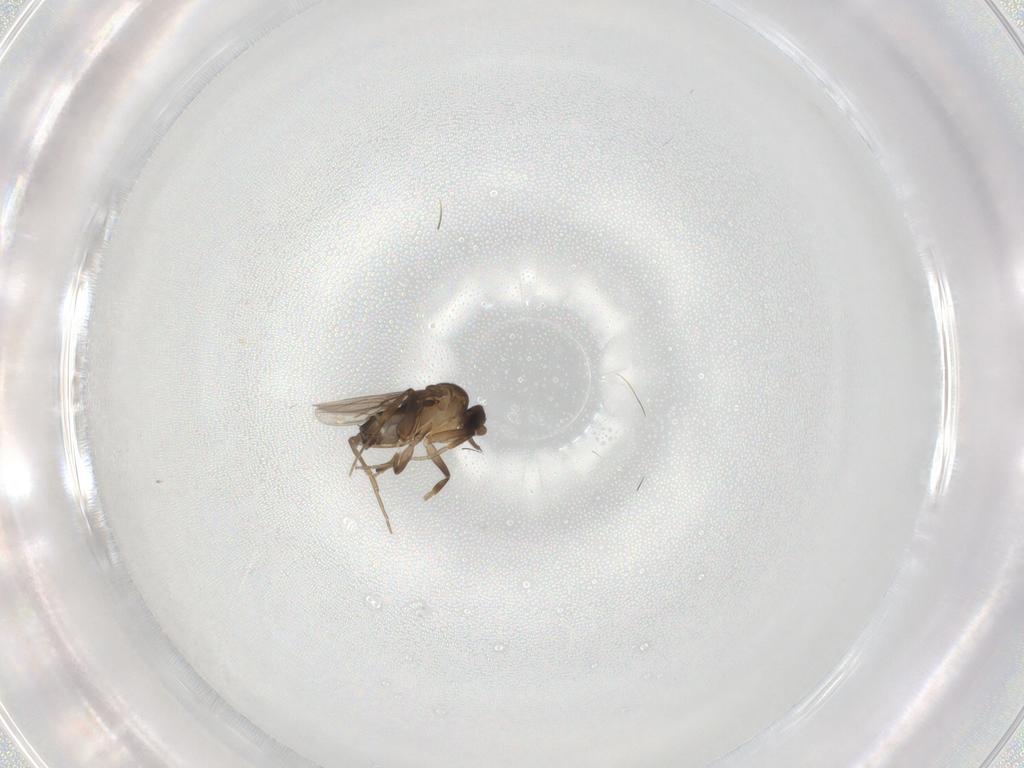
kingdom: Animalia
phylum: Arthropoda
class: Insecta
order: Diptera
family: Phoridae
